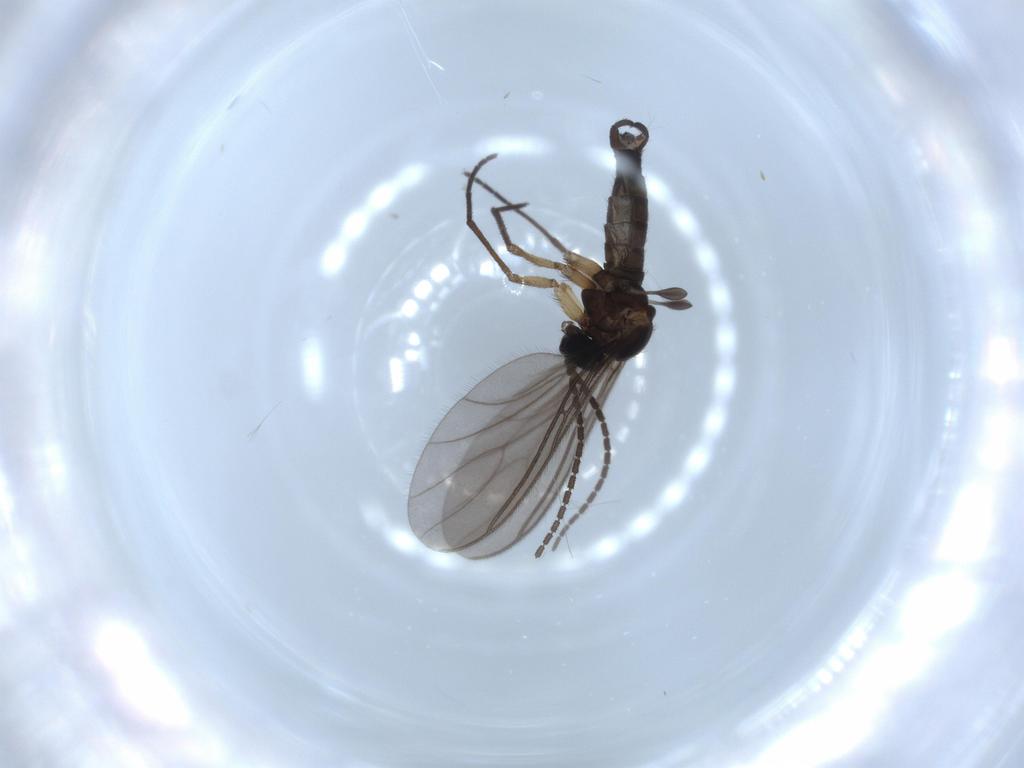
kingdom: Animalia
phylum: Arthropoda
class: Insecta
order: Diptera
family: Sciaridae
